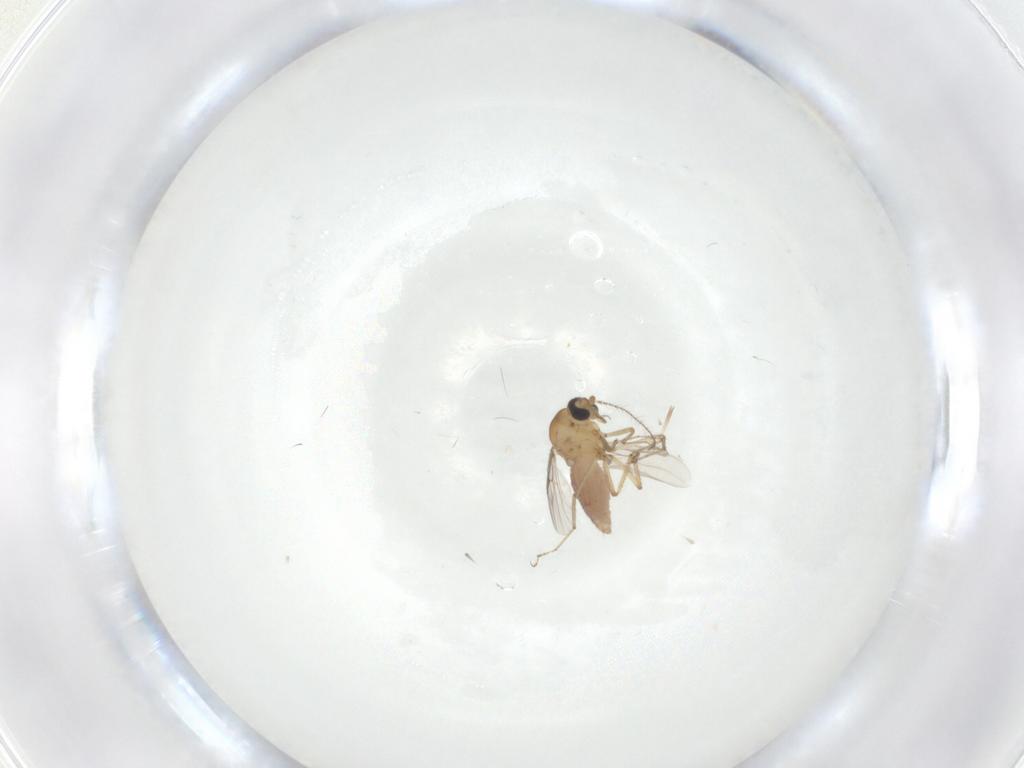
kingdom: Animalia
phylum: Arthropoda
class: Insecta
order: Diptera
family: Ceratopogonidae
